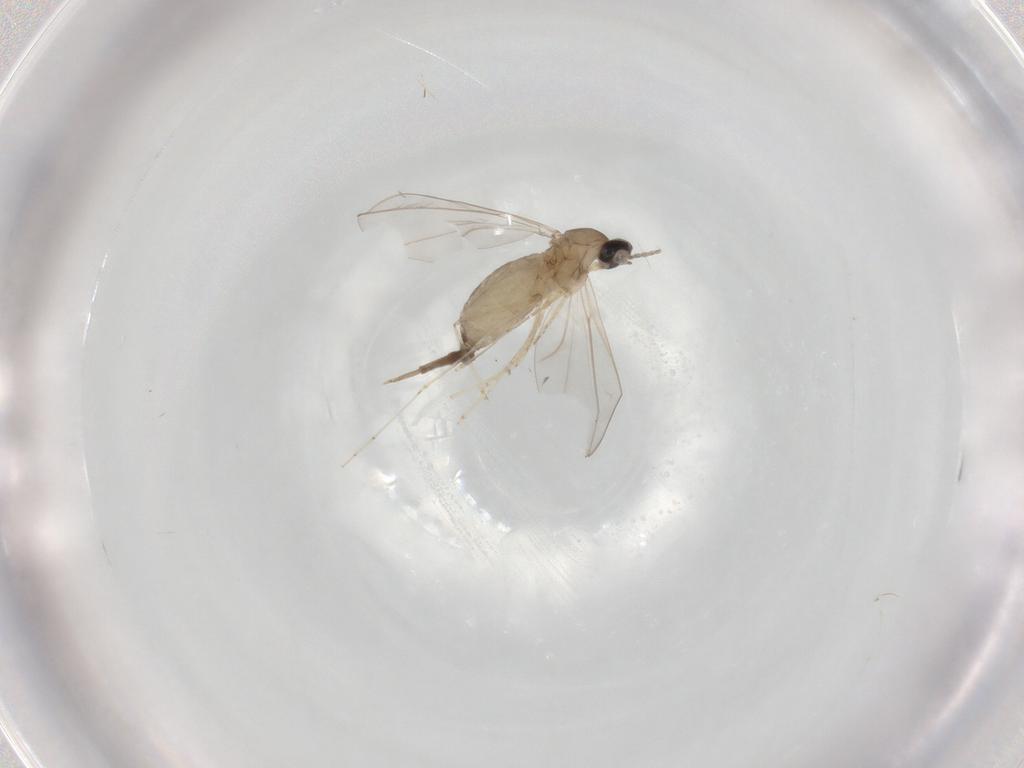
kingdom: Animalia
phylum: Arthropoda
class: Insecta
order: Diptera
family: Cecidomyiidae
